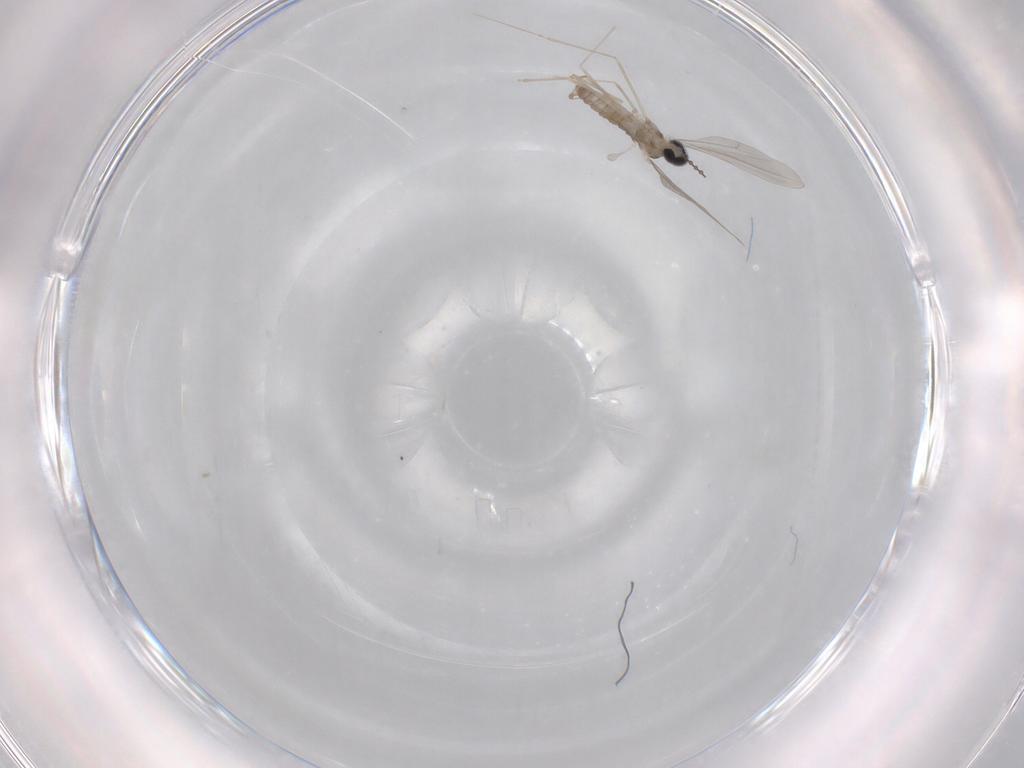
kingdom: Animalia
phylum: Arthropoda
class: Insecta
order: Diptera
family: Cecidomyiidae
